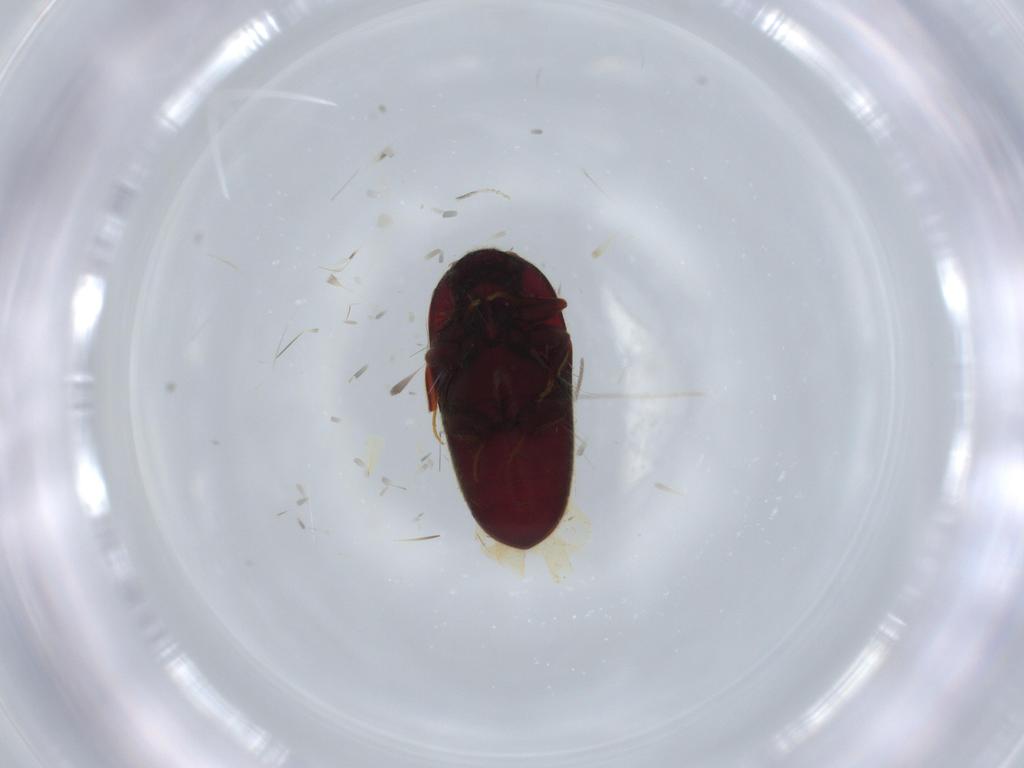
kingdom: Animalia
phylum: Arthropoda
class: Insecta
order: Coleoptera
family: Throscidae
